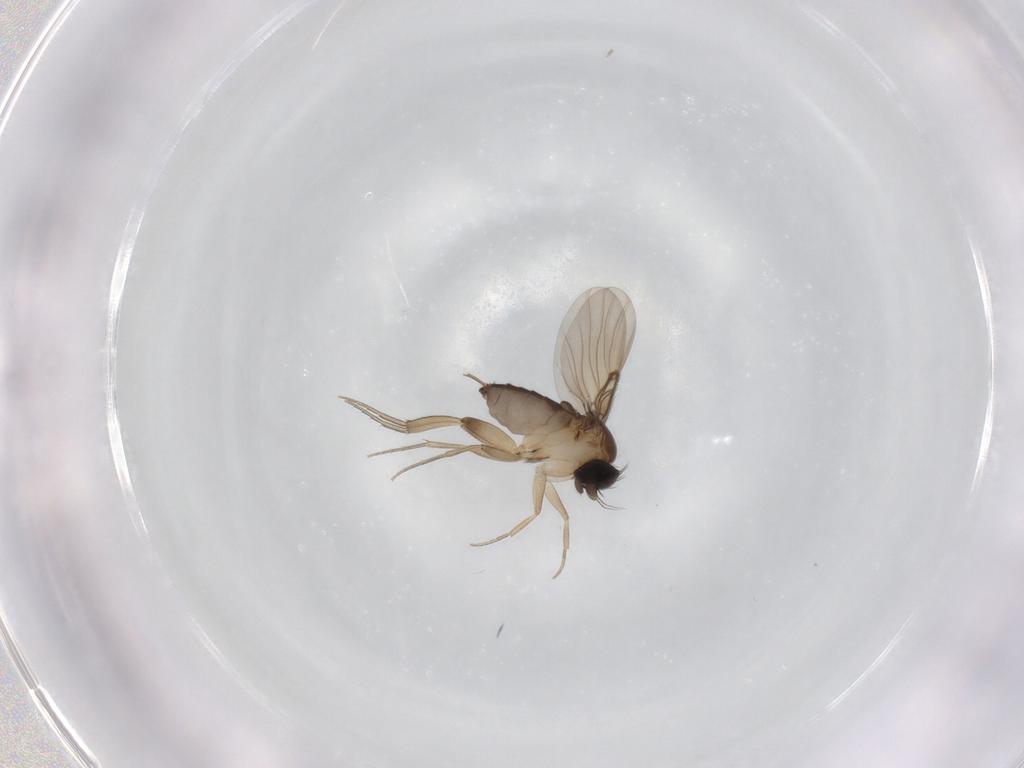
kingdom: Animalia
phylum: Arthropoda
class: Insecta
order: Diptera
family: Phoridae
